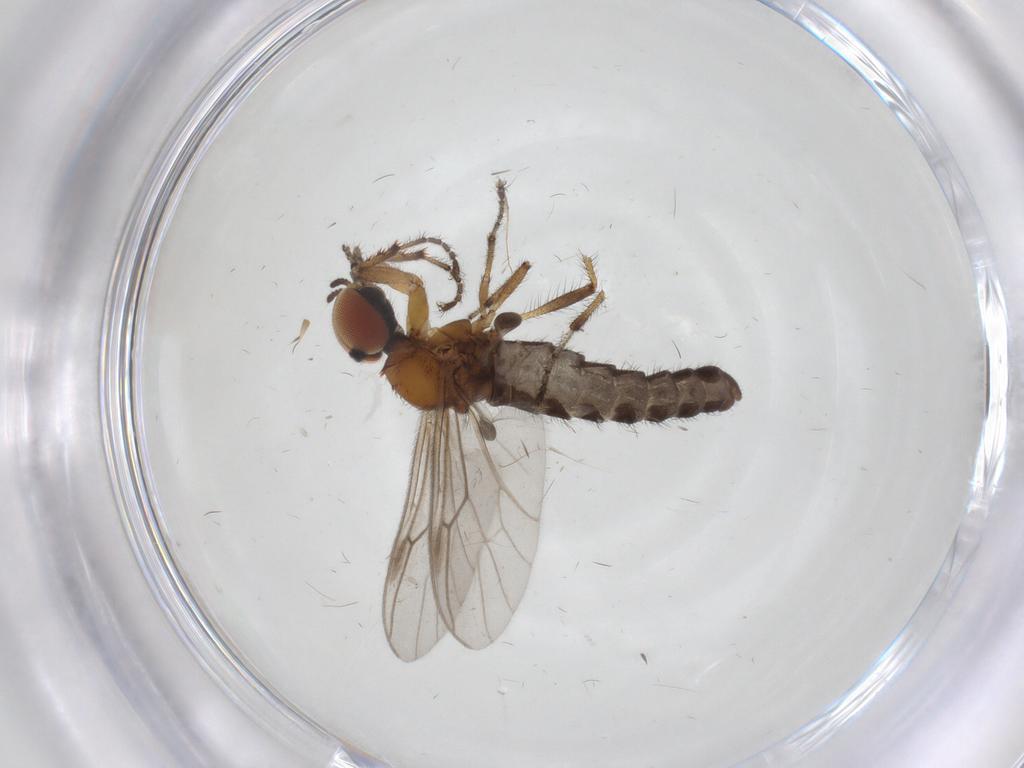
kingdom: Animalia
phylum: Arthropoda
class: Insecta
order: Diptera
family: Bibionidae
